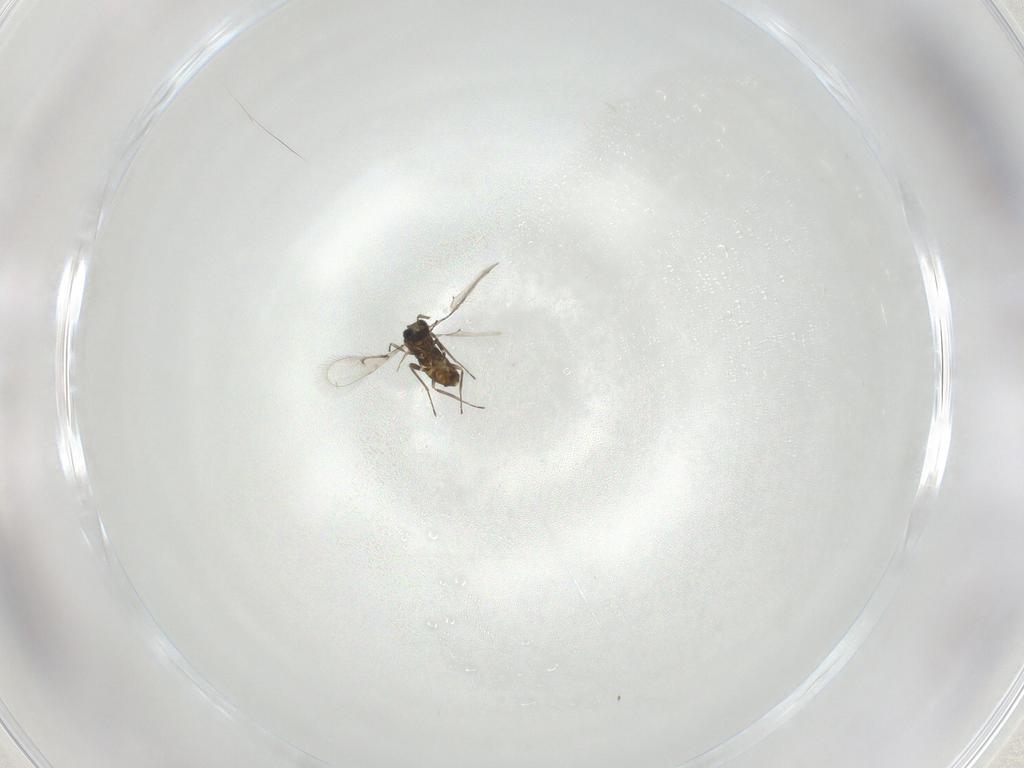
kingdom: Animalia
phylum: Arthropoda
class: Insecta
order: Hymenoptera
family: Trichogrammatidae
